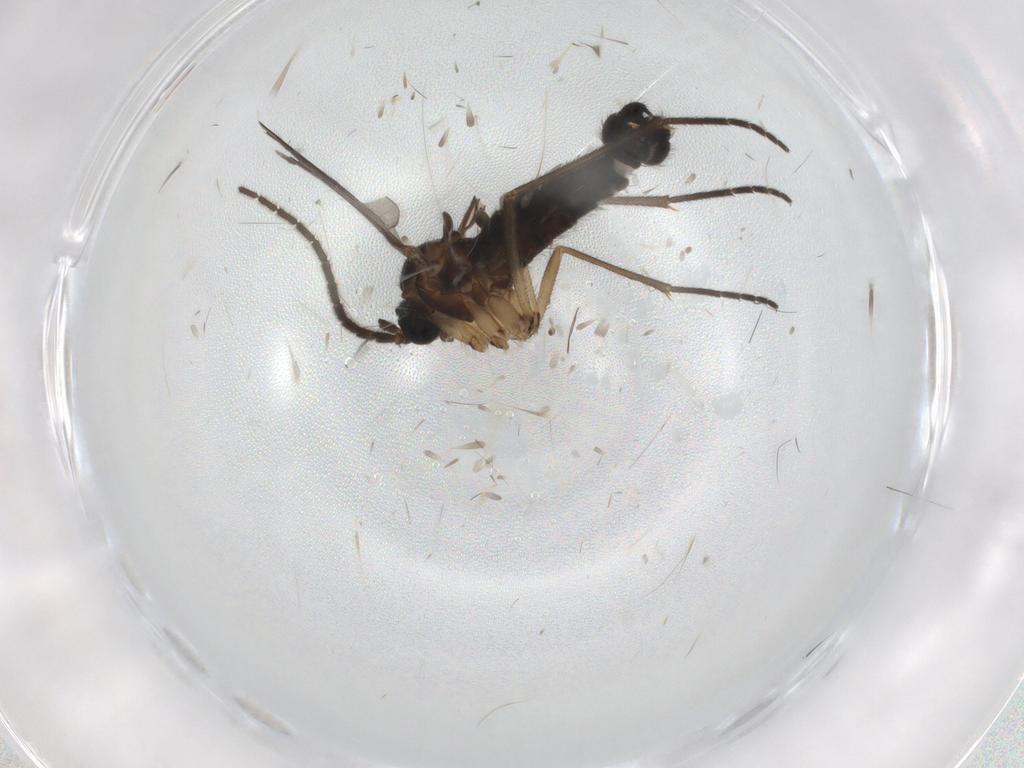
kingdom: Animalia
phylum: Arthropoda
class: Insecta
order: Diptera
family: Sciaridae
